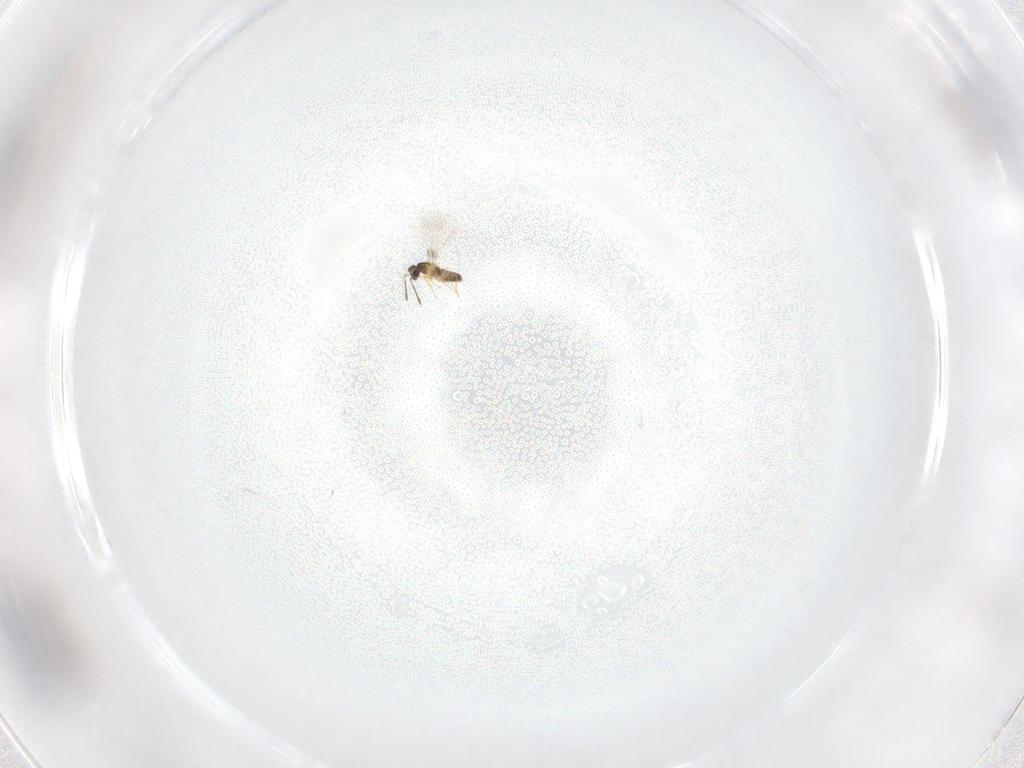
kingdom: Animalia
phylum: Arthropoda
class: Insecta
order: Hymenoptera
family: Mymaridae
